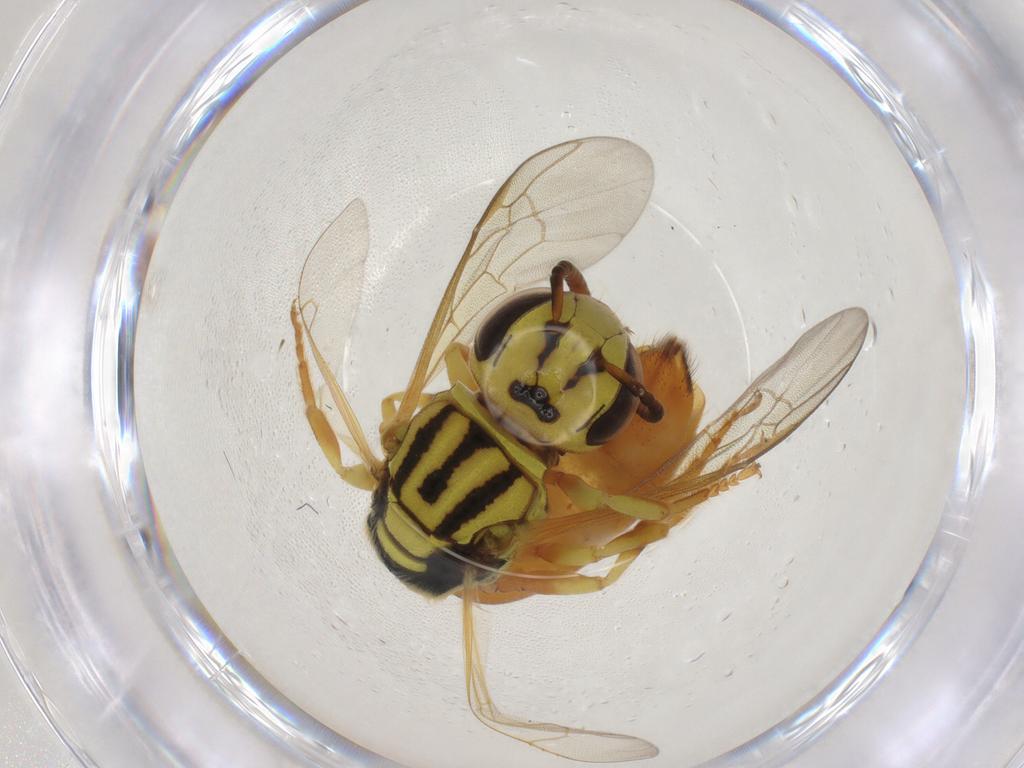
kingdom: Animalia
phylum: Arthropoda
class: Insecta
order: Hymenoptera
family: Colletidae
